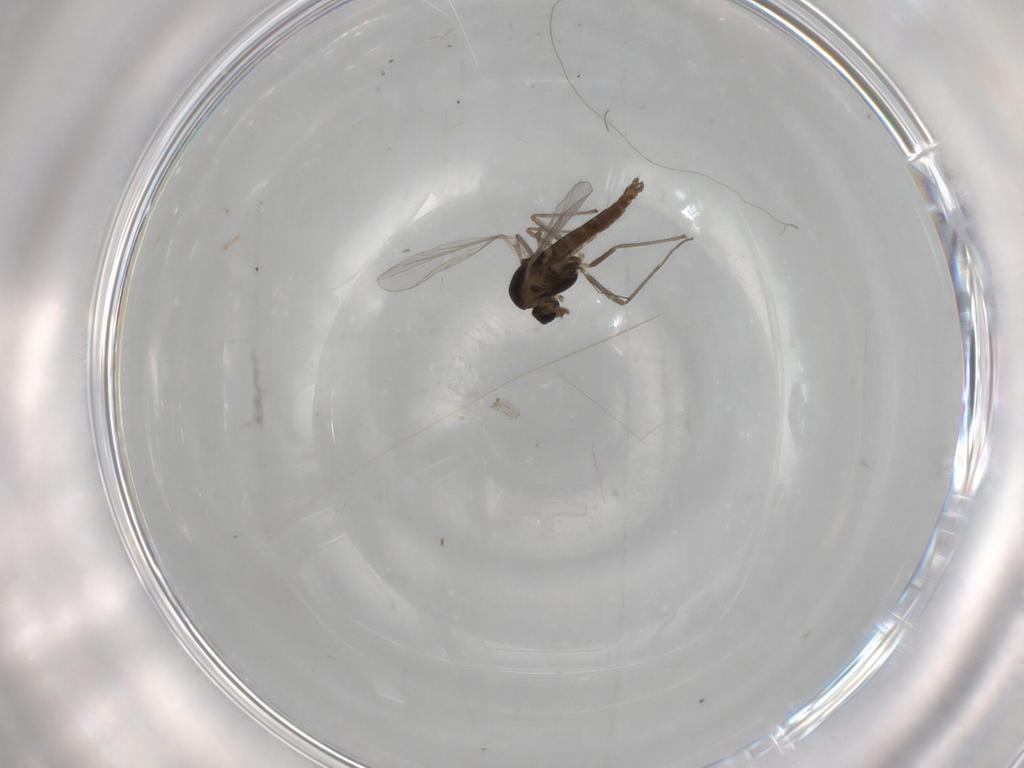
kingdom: Animalia
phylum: Arthropoda
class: Insecta
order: Diptera
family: Chironomidae
